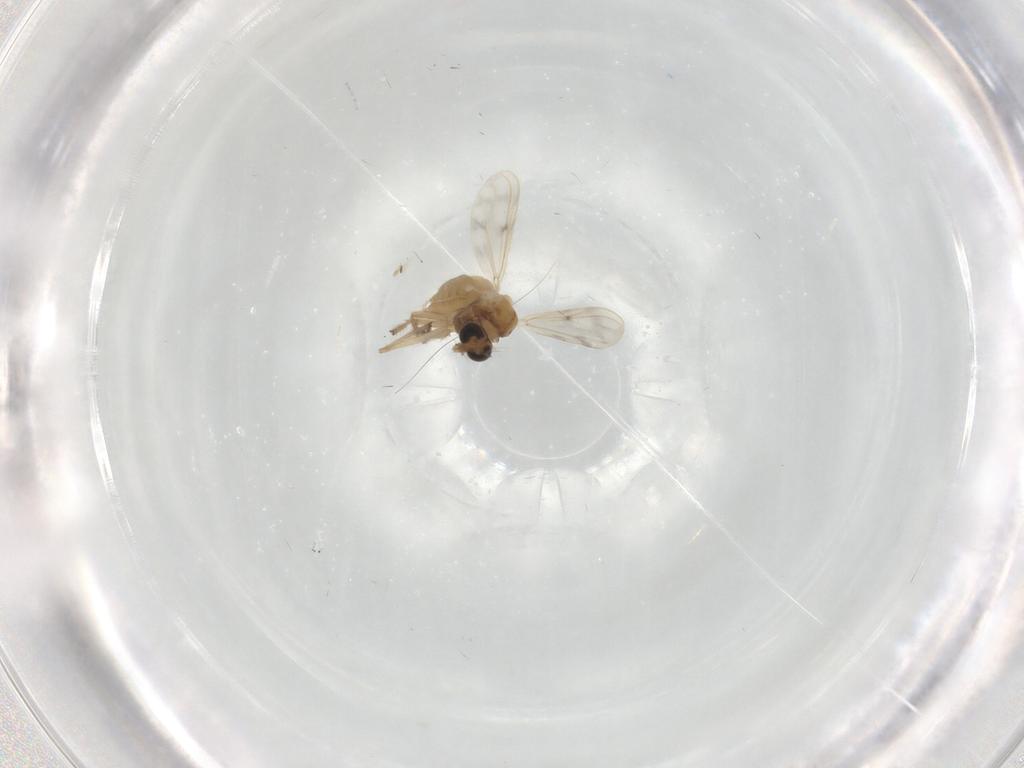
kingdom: Animalia
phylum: Arthropoda
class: Insecta
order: Diptera
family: Chironomidae
